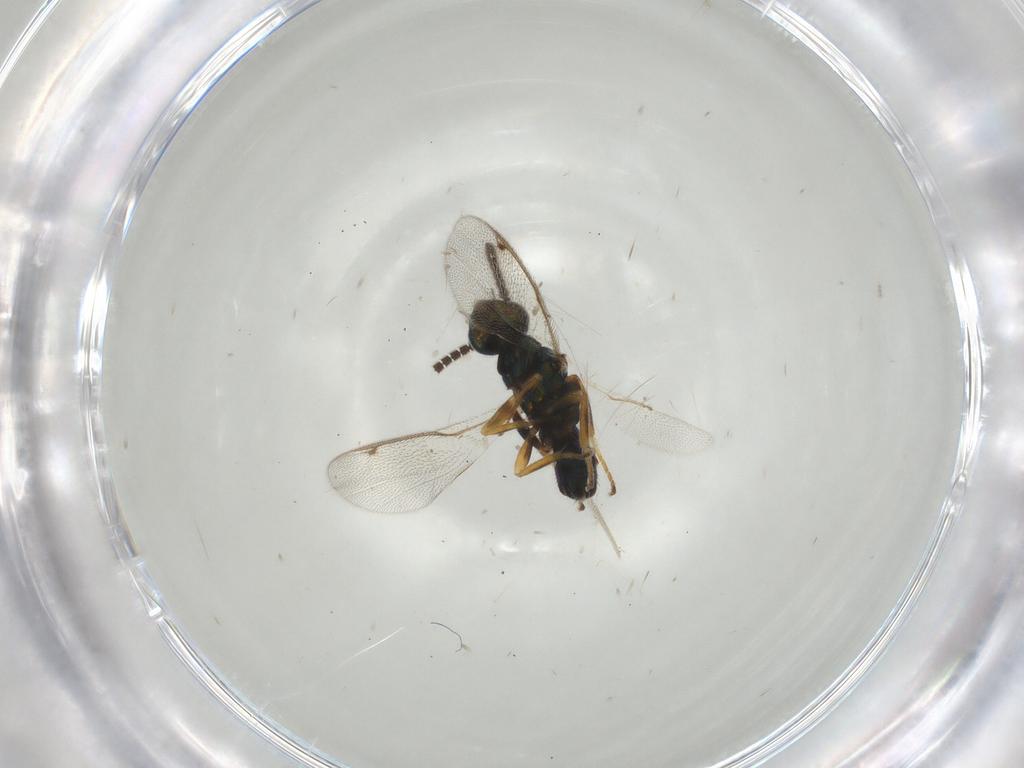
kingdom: Animalia
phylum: Arthropoda
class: Insecta
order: Hymenoptera
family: Torymidae
